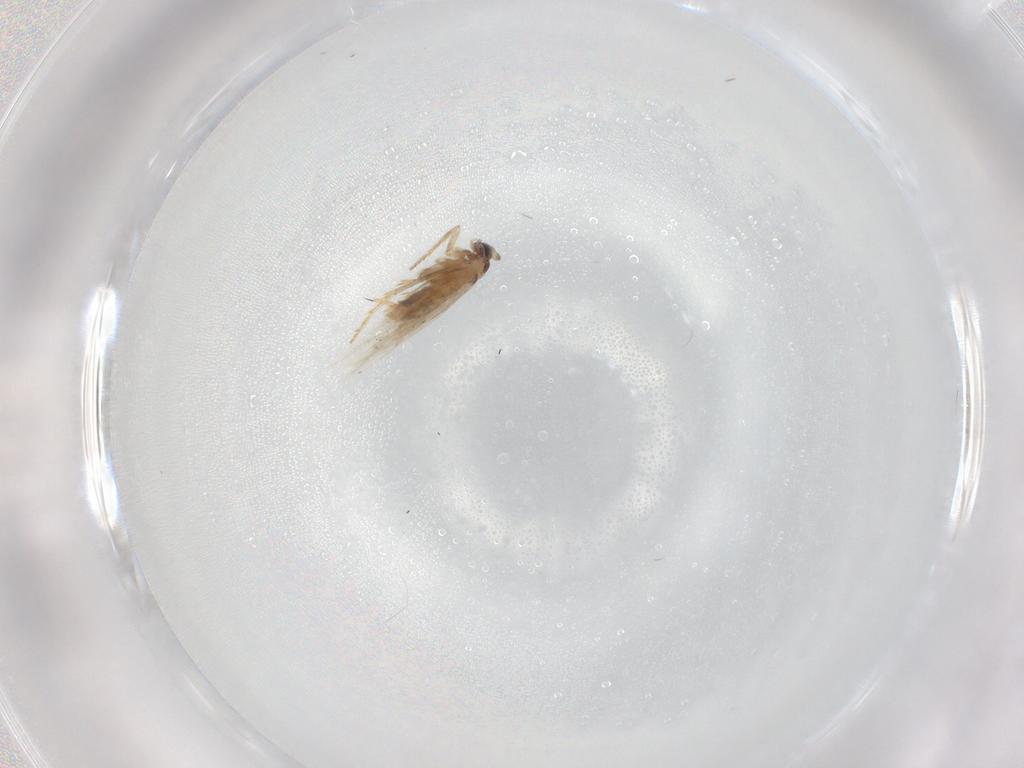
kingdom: Animalia
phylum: Arthropoda
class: Insecta
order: Lepidoptera
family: Nepticulidae
